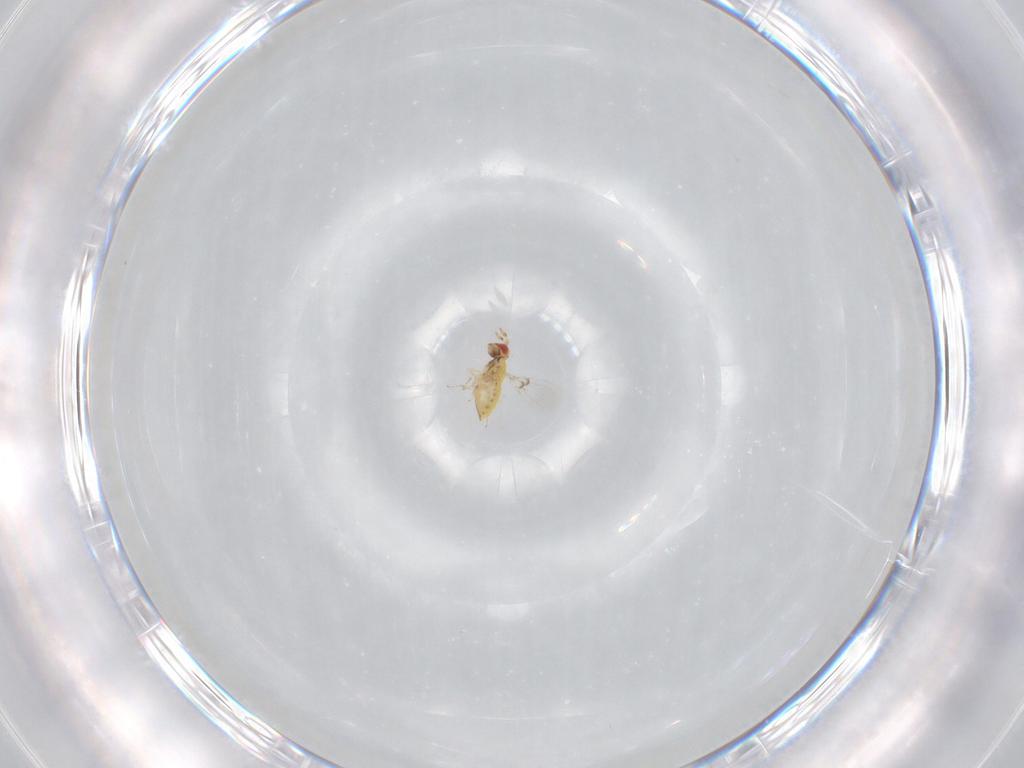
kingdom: Animalia
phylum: Arthropoda
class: Insecta
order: Hymenoptera
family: Trichogrammatidae
